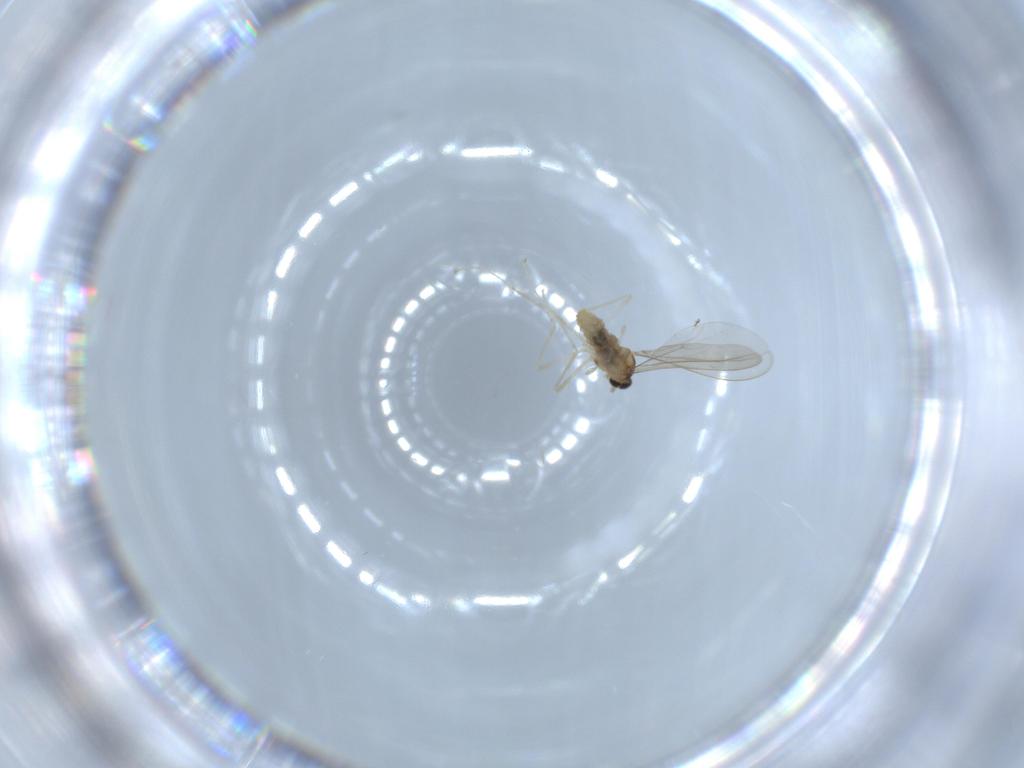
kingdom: Animalia
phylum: Arthropoda
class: Insecta
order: Diptera
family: Cecidomyiidae
